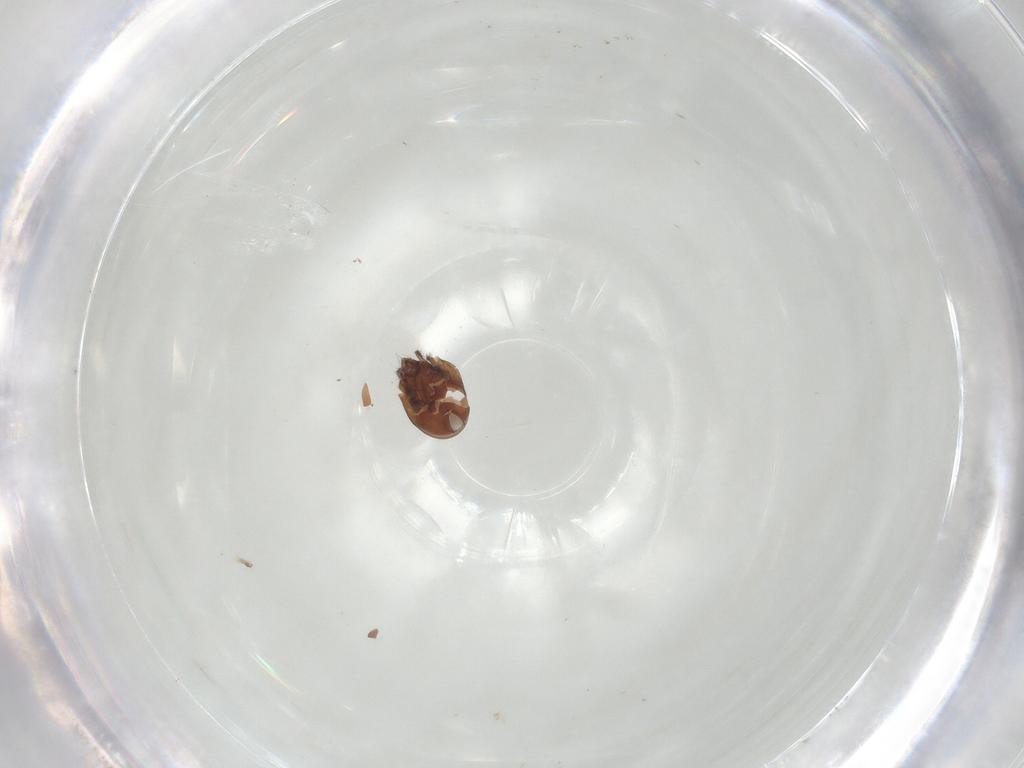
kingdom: Animalia
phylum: Arthropoda
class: Arachnida
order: Sarcoptiformes
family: Ceratozetidae
